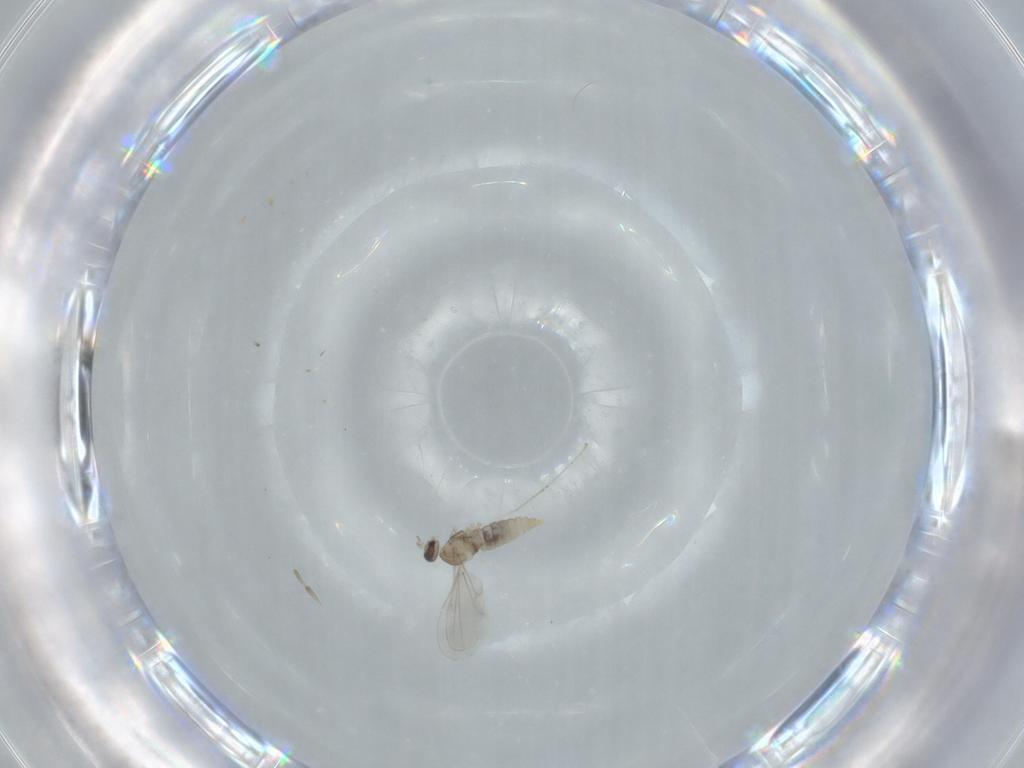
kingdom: Animalia
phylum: Arthropoda
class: Insecta
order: Diptera
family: Cecidomyiidae
